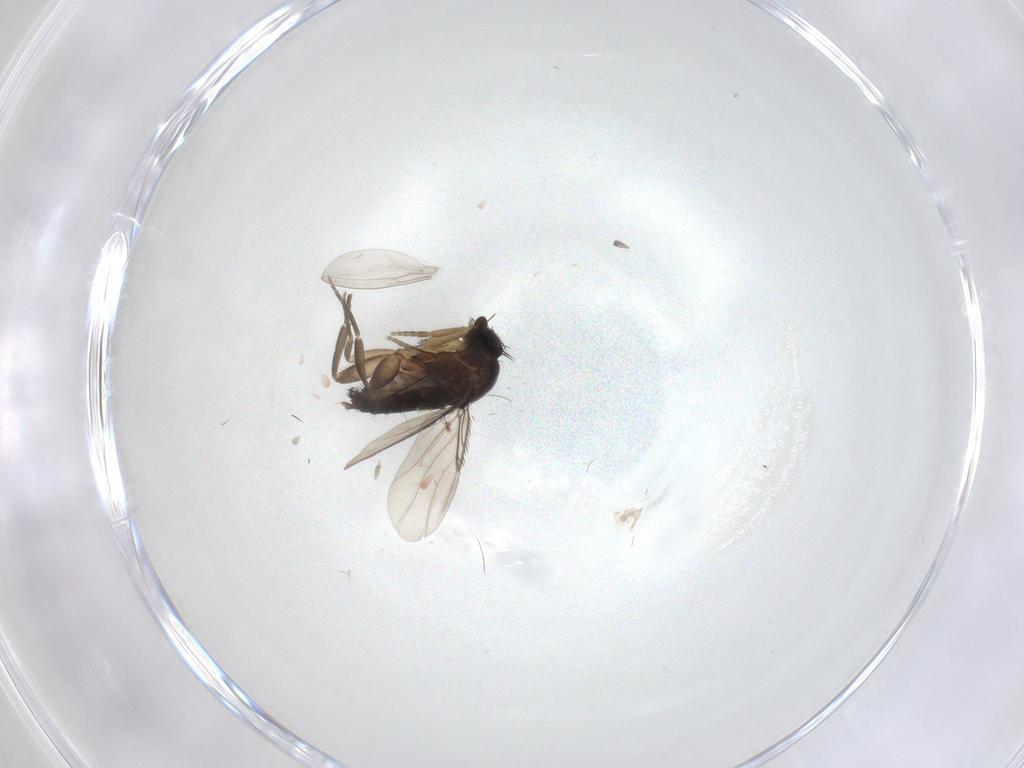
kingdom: Animalia
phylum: Arthropoda
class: Insecta
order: Diptera
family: Phoridae
